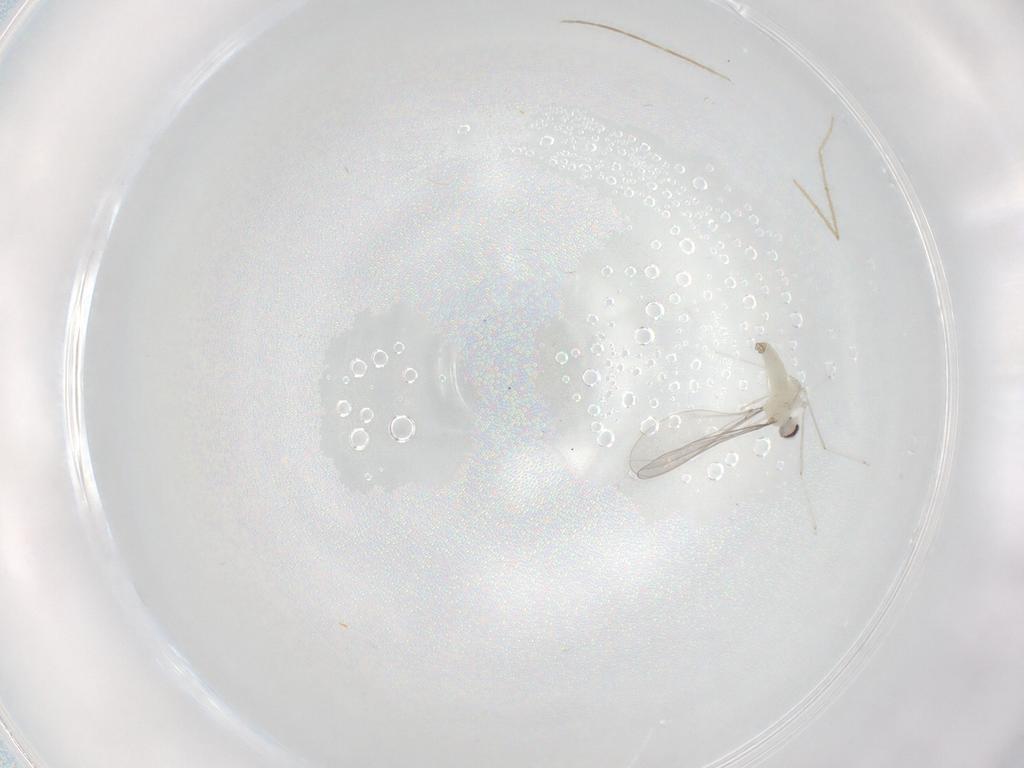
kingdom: Animalia
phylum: Arthropoda
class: Insecta
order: Diptera
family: Cecidomyiidae
